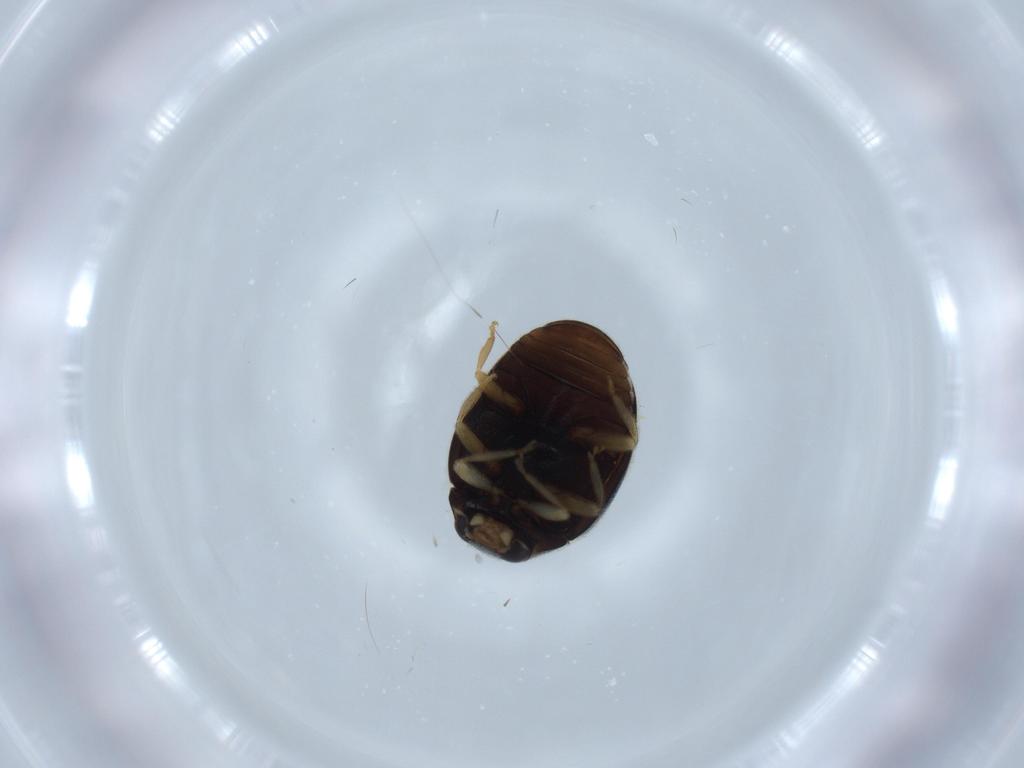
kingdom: Animalia
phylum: Arthropoda
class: Insecta
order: Coleoptera
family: Coccinellidae
